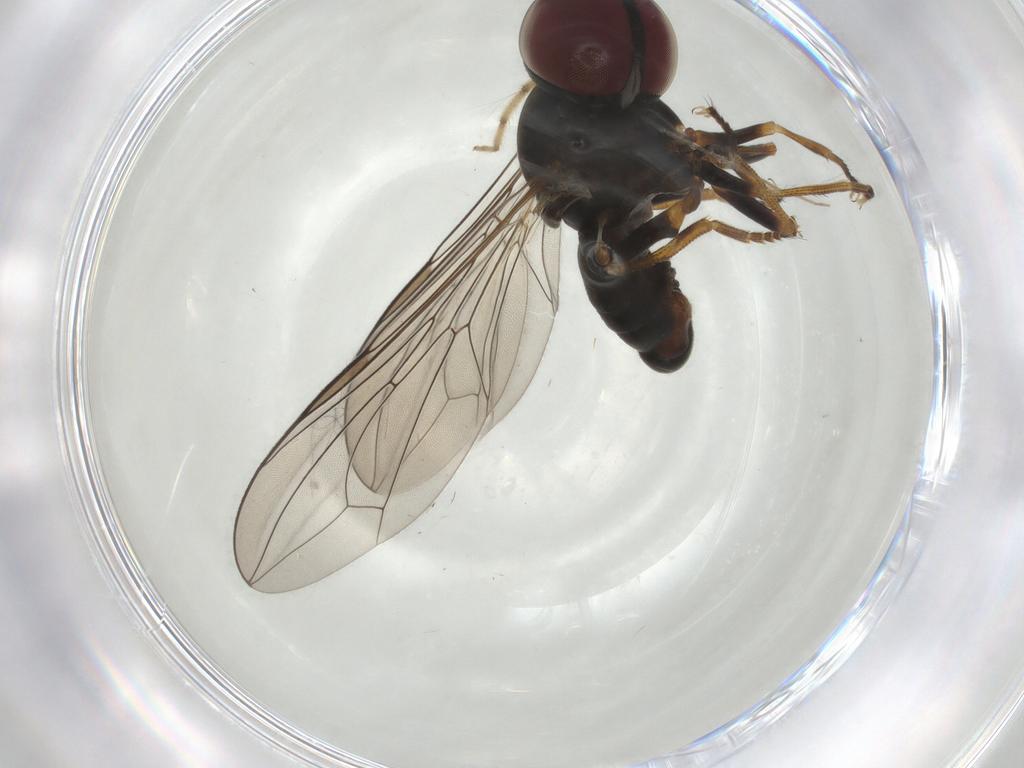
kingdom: Animalia
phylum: Arthropoda
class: Insecta
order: Diptera
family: Pipunculidae
